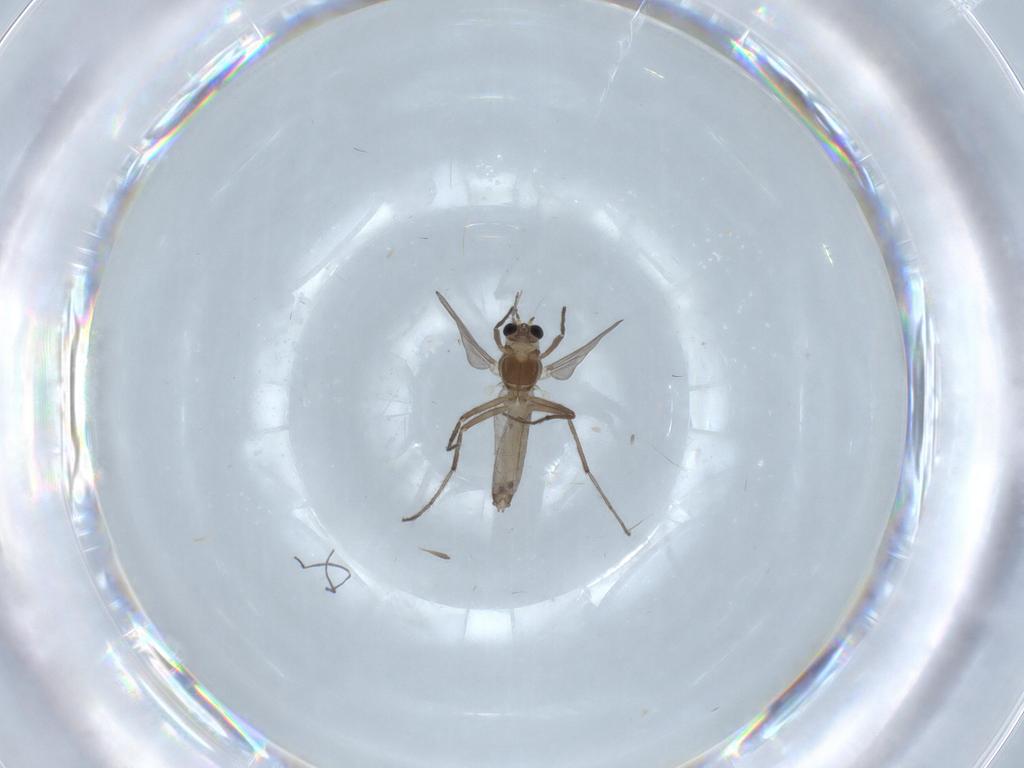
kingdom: Animalia
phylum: Arthropoda
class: Insecta
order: Diptera
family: Chironomidae
